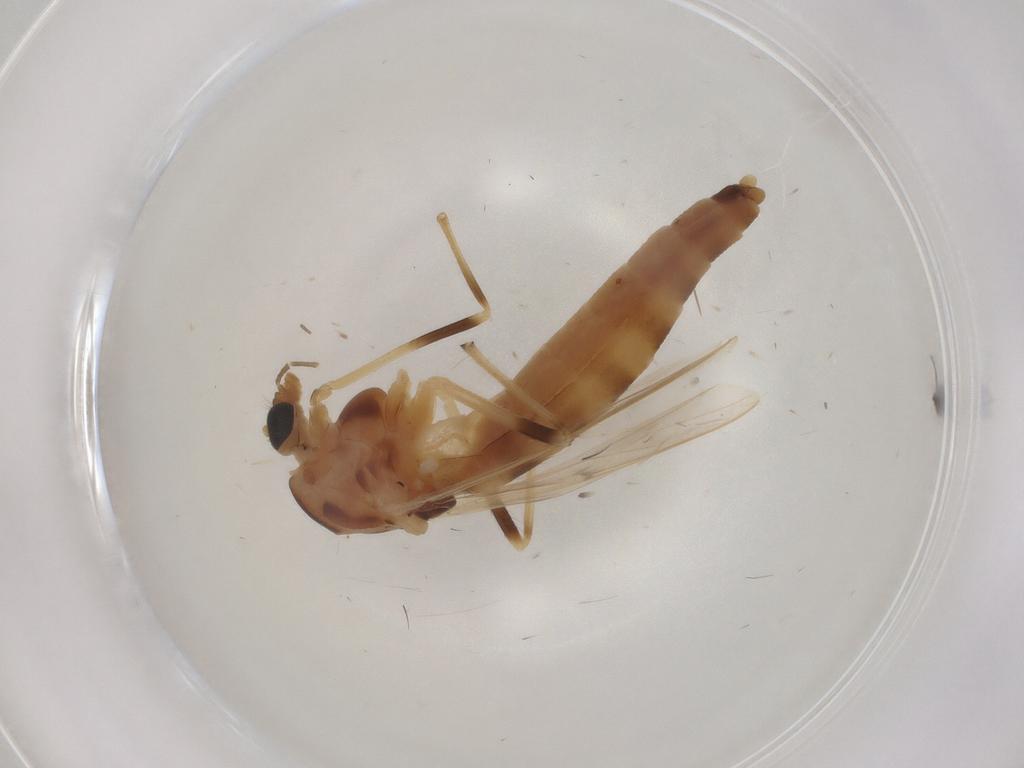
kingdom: Animalia
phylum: Arthropoda
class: Insecta
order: Diptera
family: Chironomidae
